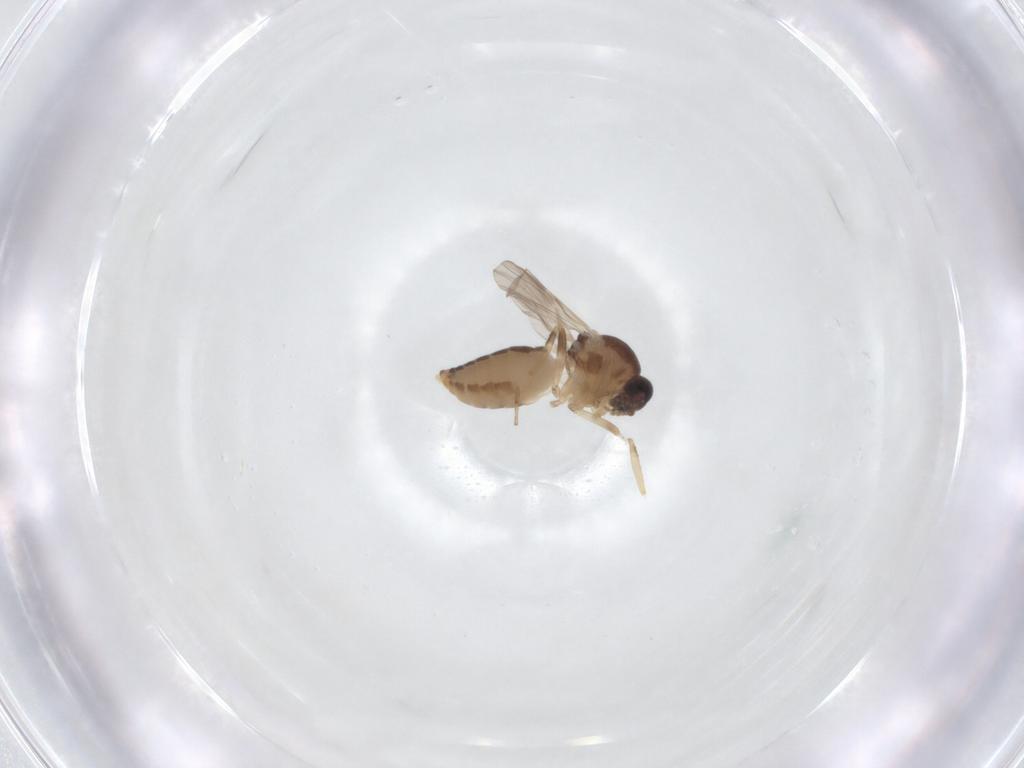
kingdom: Animalia
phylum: Arthropoda
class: Insecta
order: Diptera
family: Ceratopogonidae
